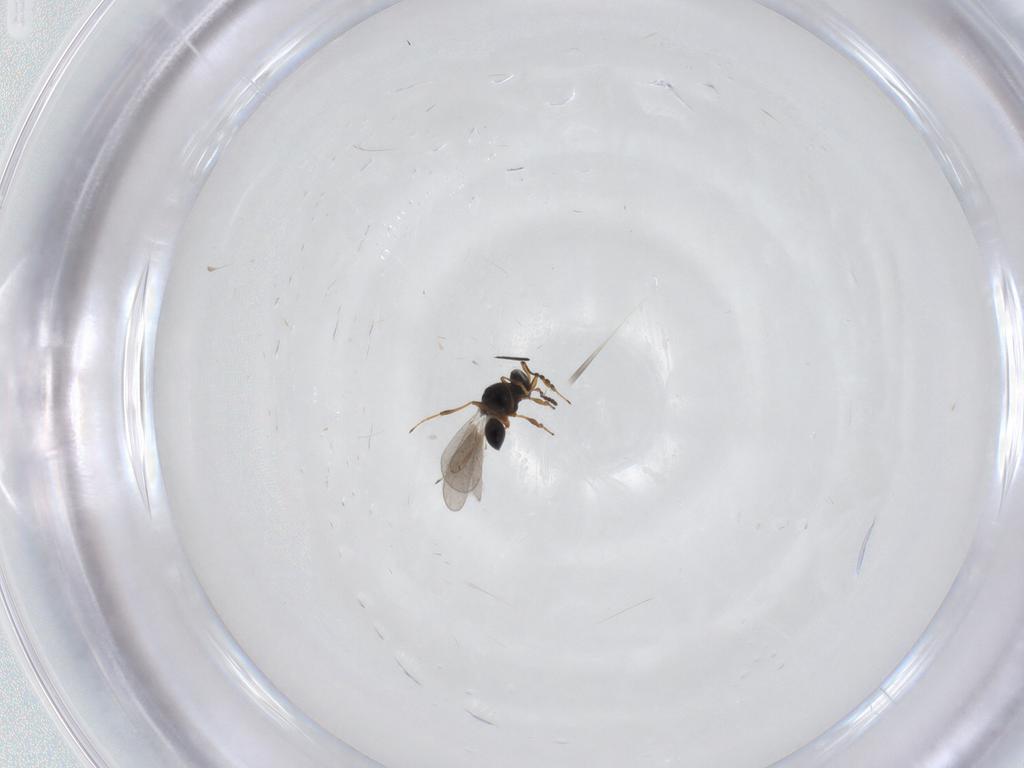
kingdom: Animalia
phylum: Arthropoda
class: Insecta
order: Hymenoptera
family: Platygastridae
